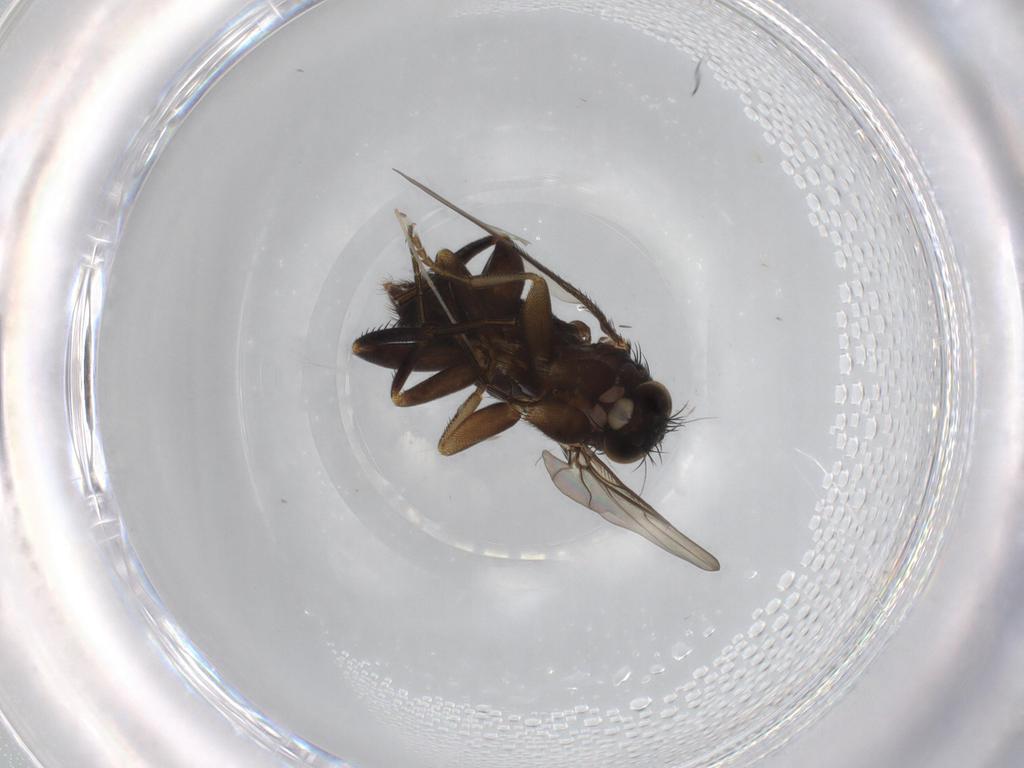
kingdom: Animalia
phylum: Arthropoda
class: Insecta
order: Diptera
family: Phoridae
